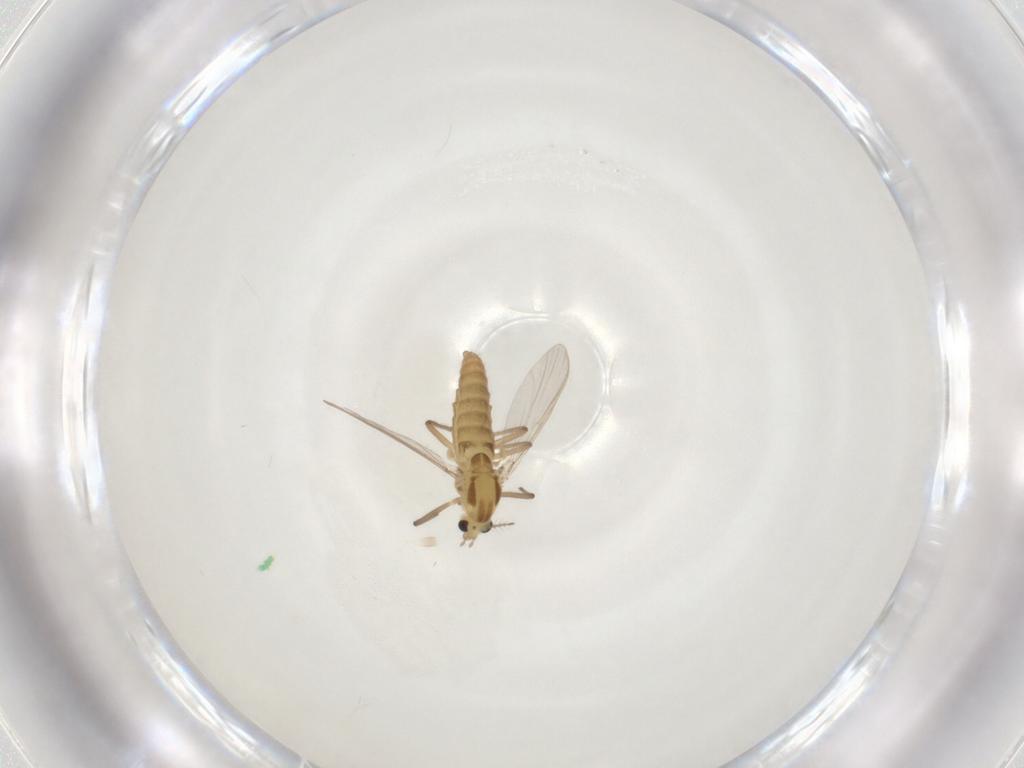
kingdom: Animalia
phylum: Arthropoda
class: Insecta
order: Diptera
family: Chironomidae
